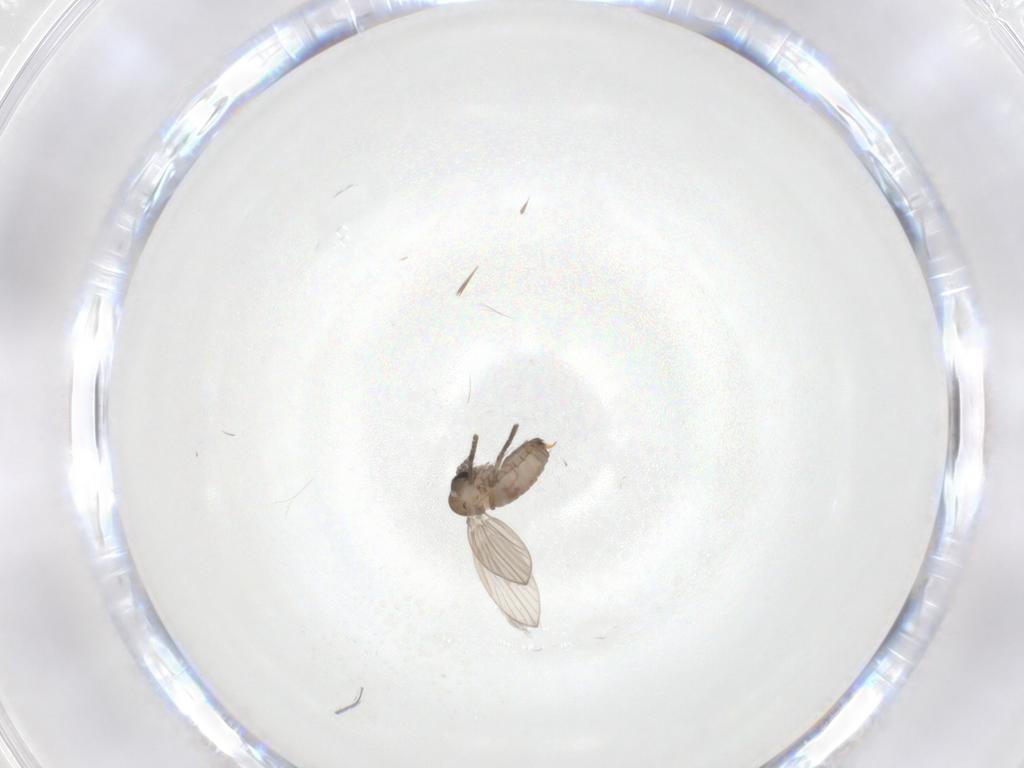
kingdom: Animalia
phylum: Arthropoda
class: Insecta
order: Diptera
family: Psychodidae
